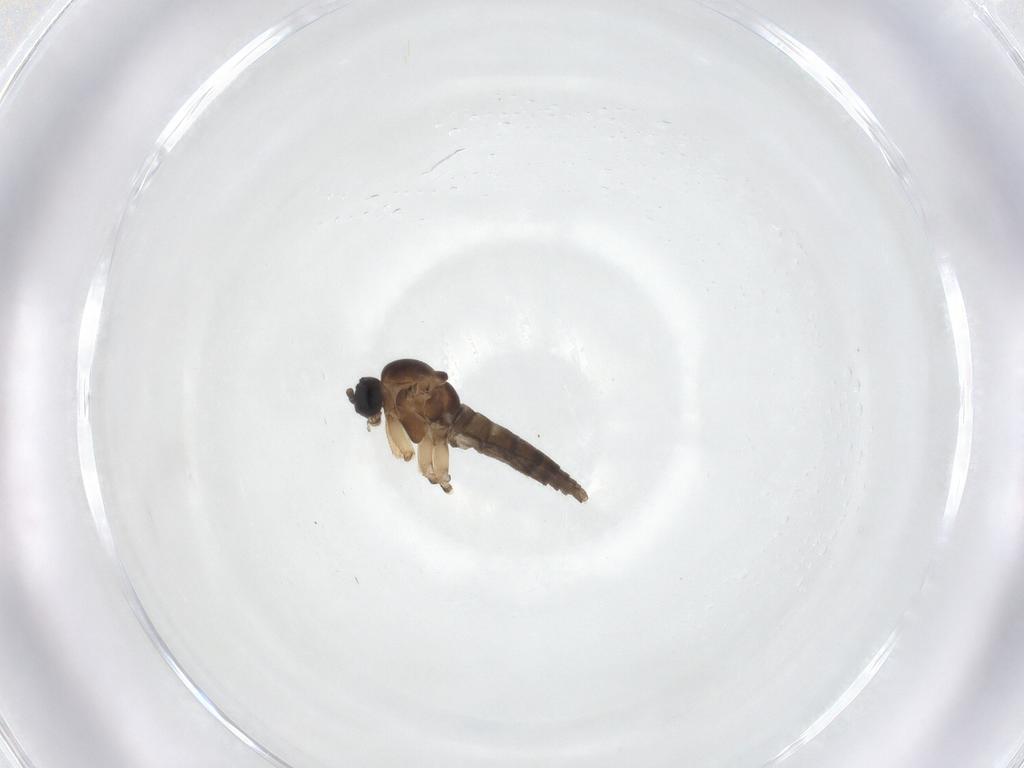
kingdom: Animalia
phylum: Arthropoda
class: Insecta
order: Diptera
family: Sciaridae
